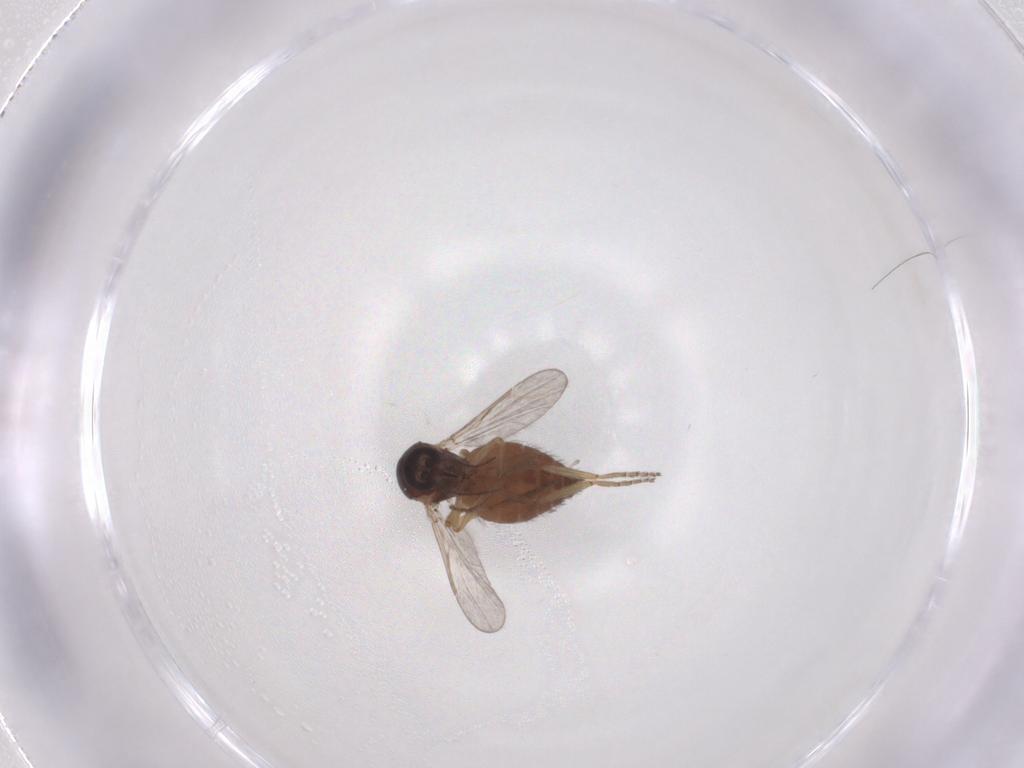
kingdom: Animalia
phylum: Arthropoda
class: Insecta
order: Diptera
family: Ceratopogonidae
